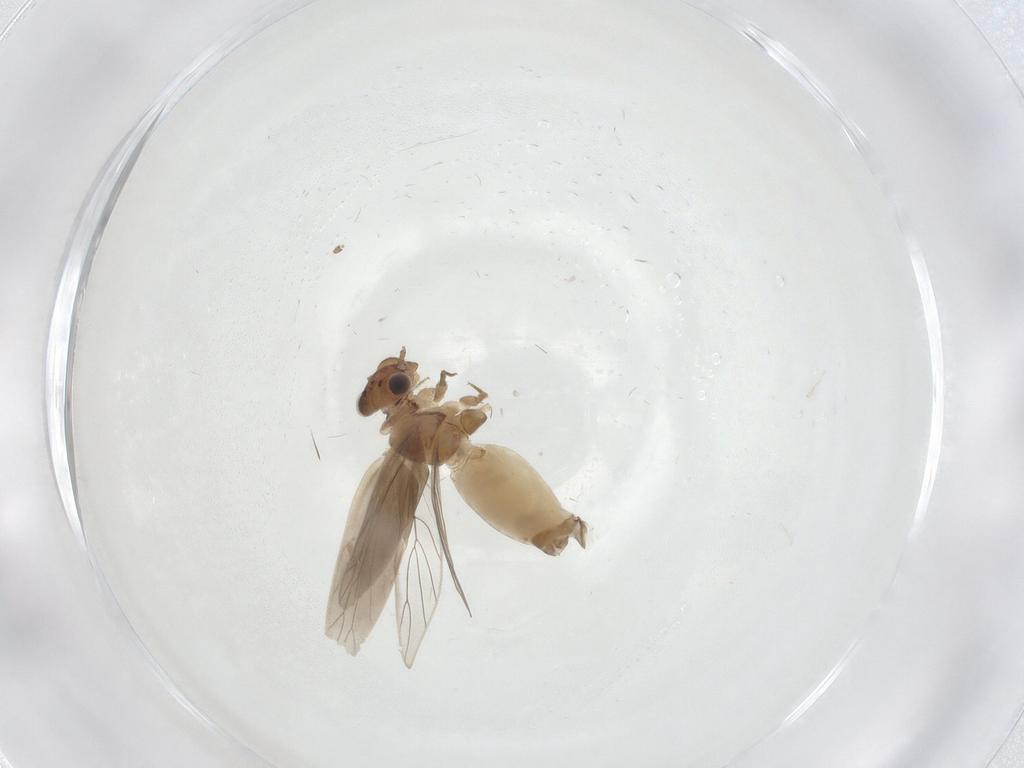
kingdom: Animalia
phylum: Arthropoda
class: Insecta
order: Psocodea
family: Lepidopsocidae
